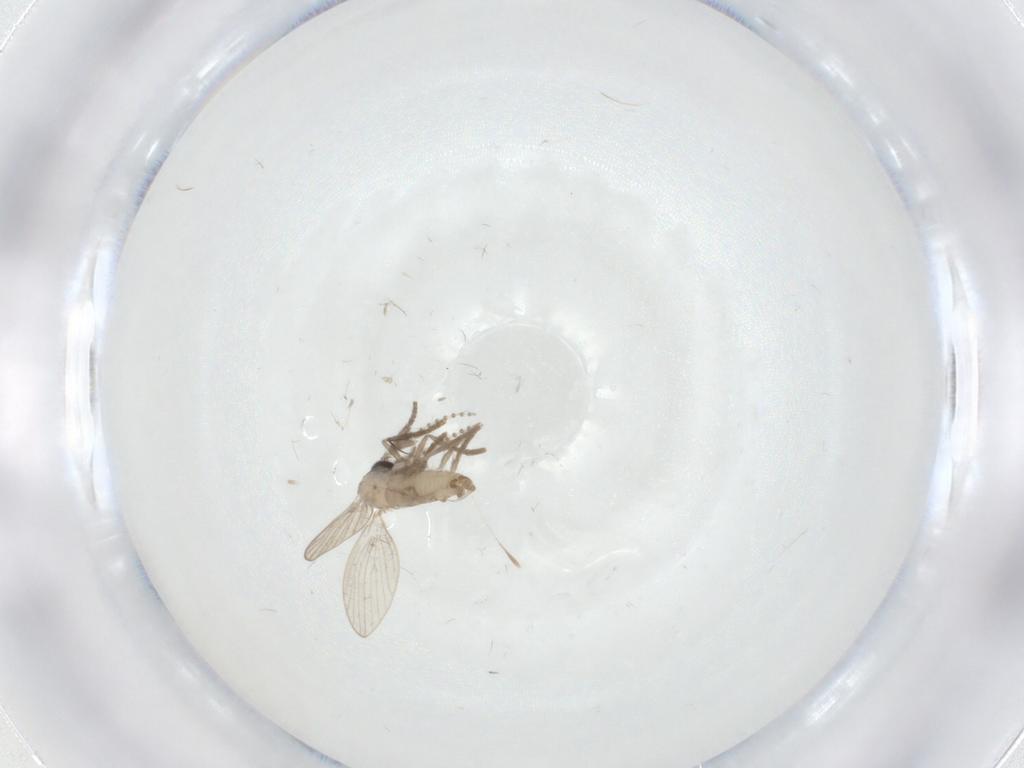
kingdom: Animalia
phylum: Arthropoda
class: Insecta
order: Diptera
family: Psychodidae
